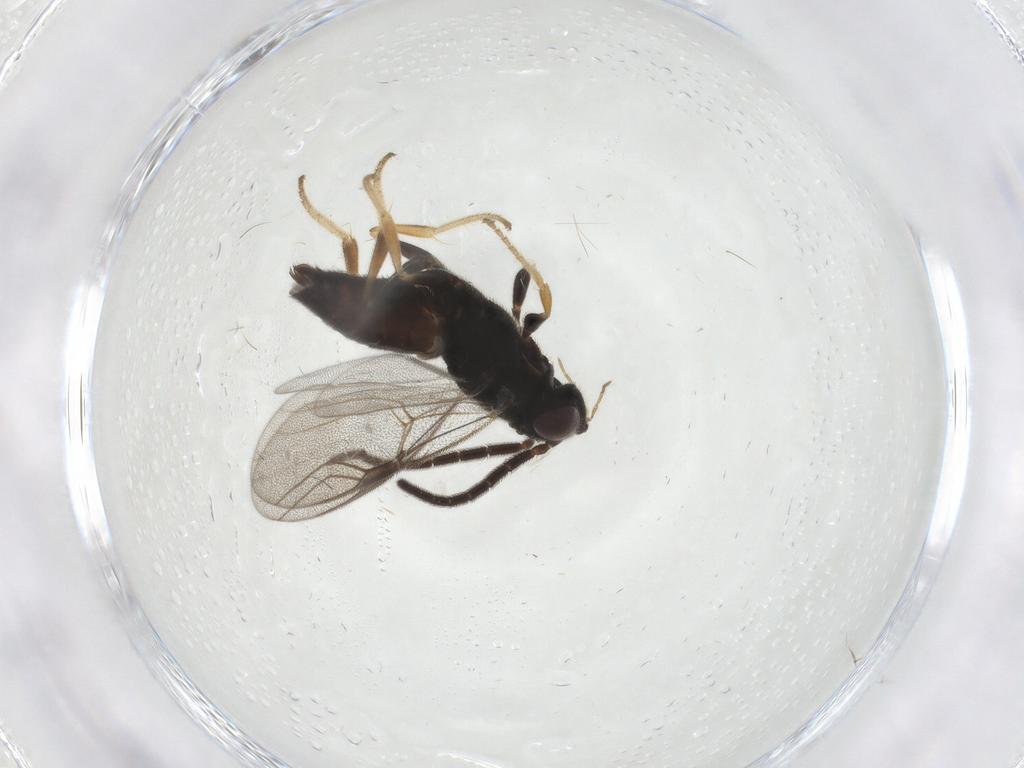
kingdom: Animalia
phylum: Arthropoda
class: Insecta
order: Hymenoptera
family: Dryinidae
